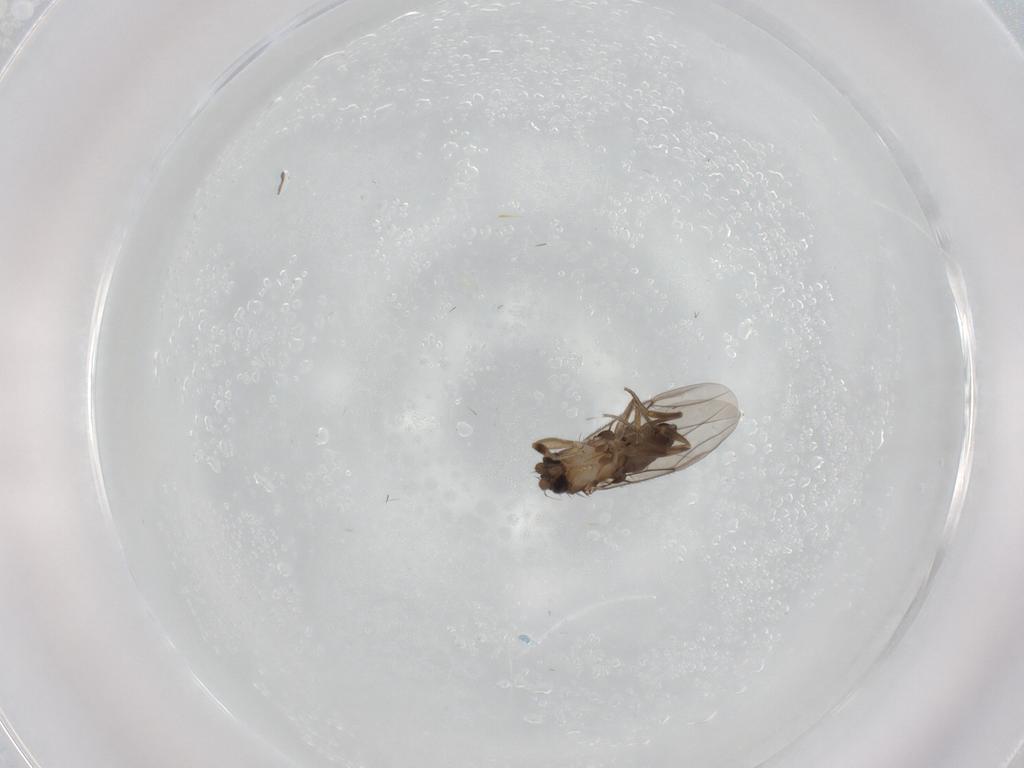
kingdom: Animalia
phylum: Arthropoda
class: Insecta
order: Diptera
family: Phoridae
